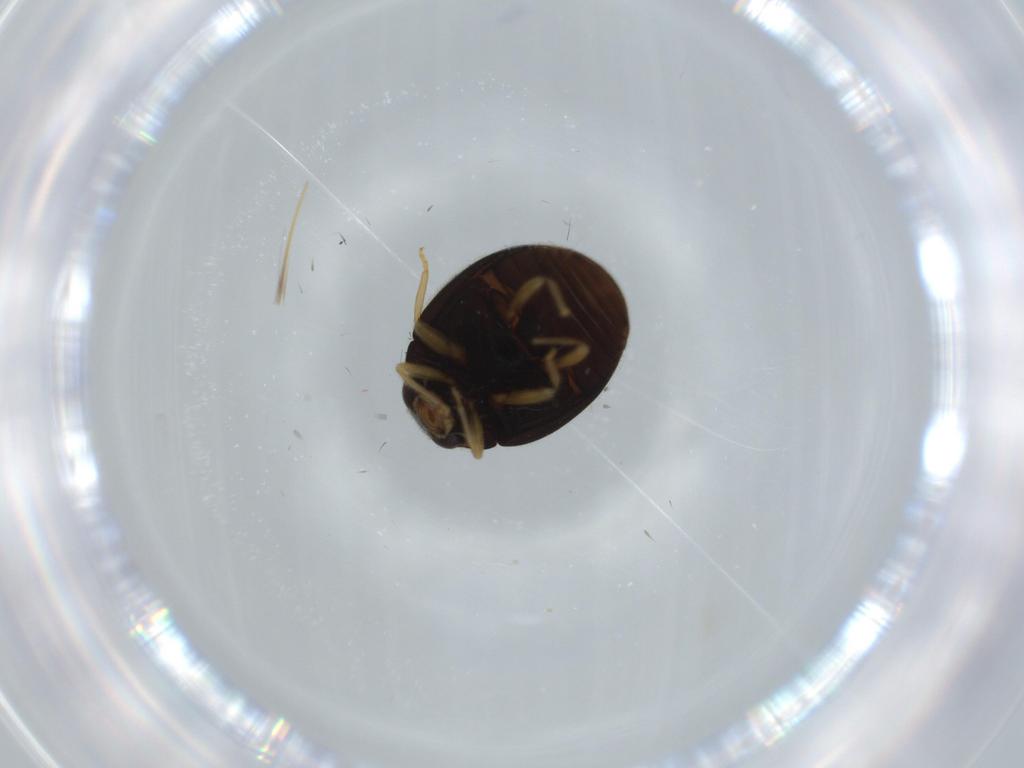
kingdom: Animalia
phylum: Arthropoda
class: Insecta
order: Coleoptera
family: Coccinellidae
